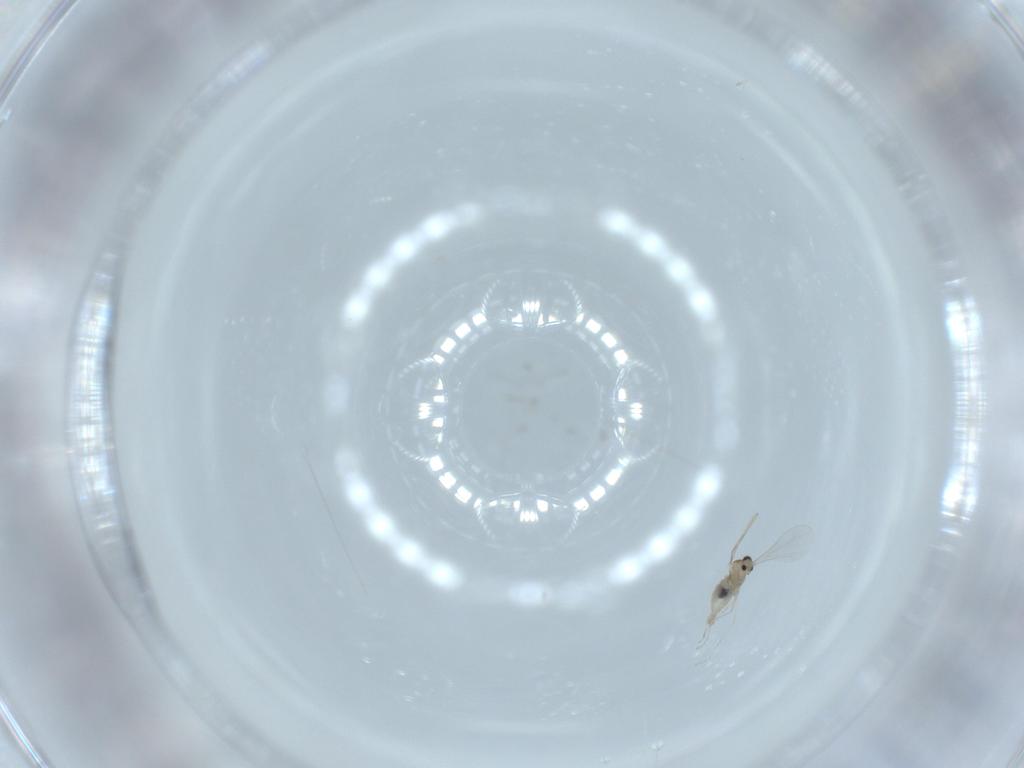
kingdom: Animalia
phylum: Arthropoda
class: Insecta
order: Diptera
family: Cecidomyiidae
